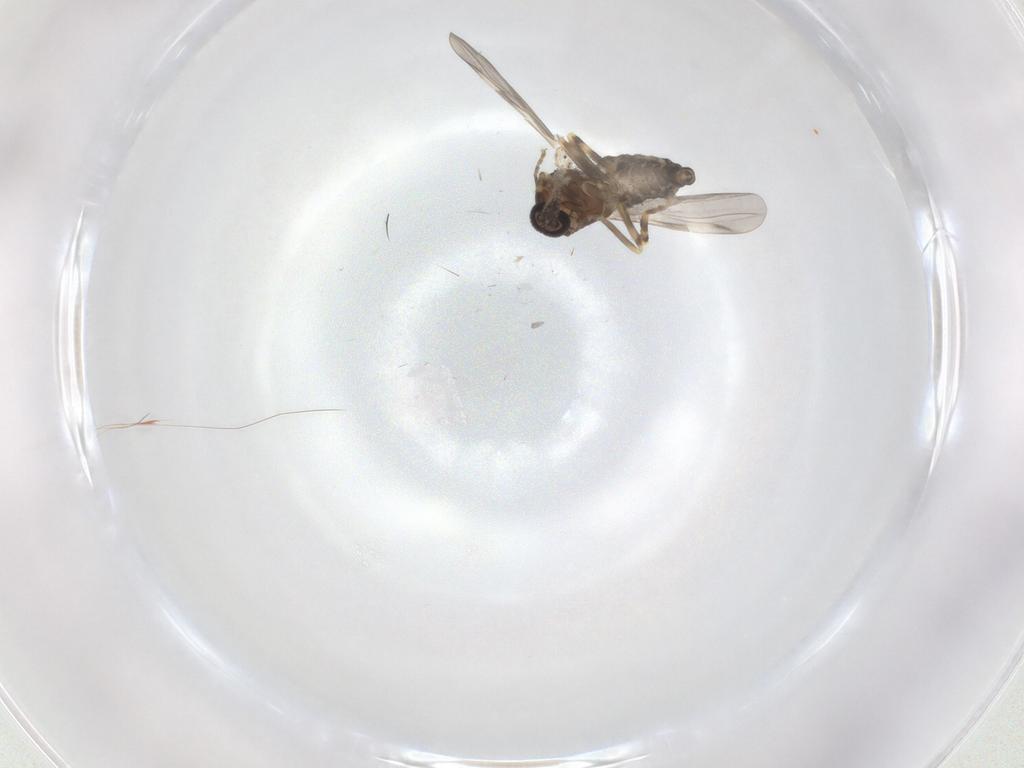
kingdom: Animalia
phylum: Arthropoda
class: Insecta
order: Diptera
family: Ceratopogonidae
